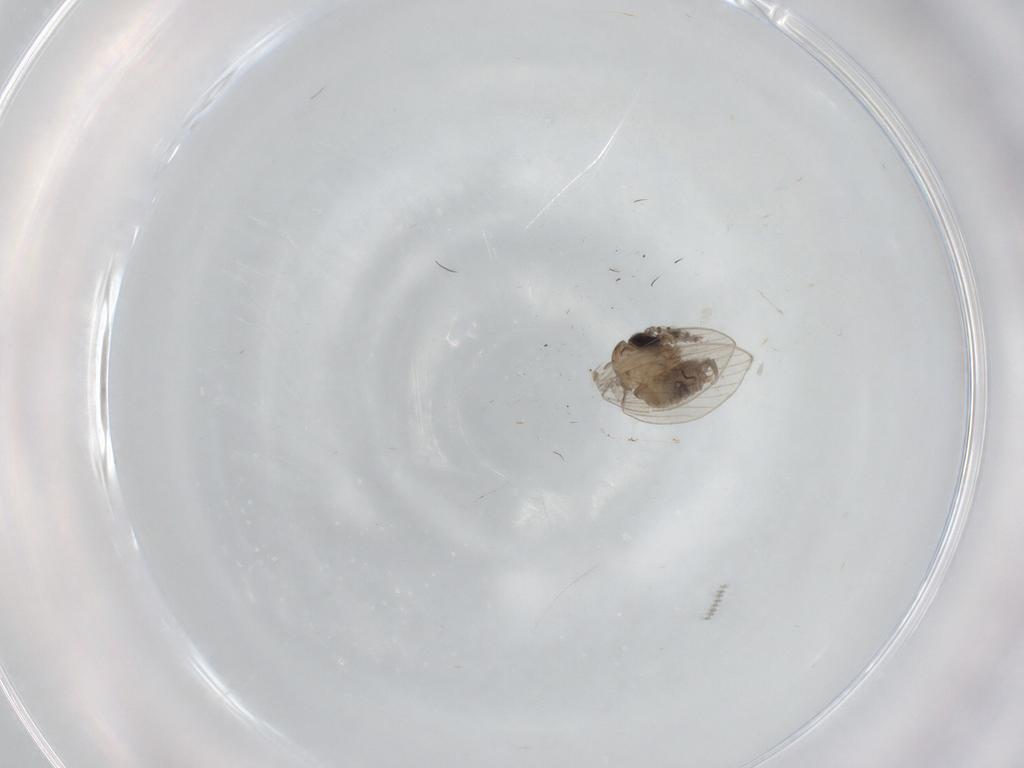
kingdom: Animalia
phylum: Arthropoda
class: Insecta
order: Diptera
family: Psychodidae
